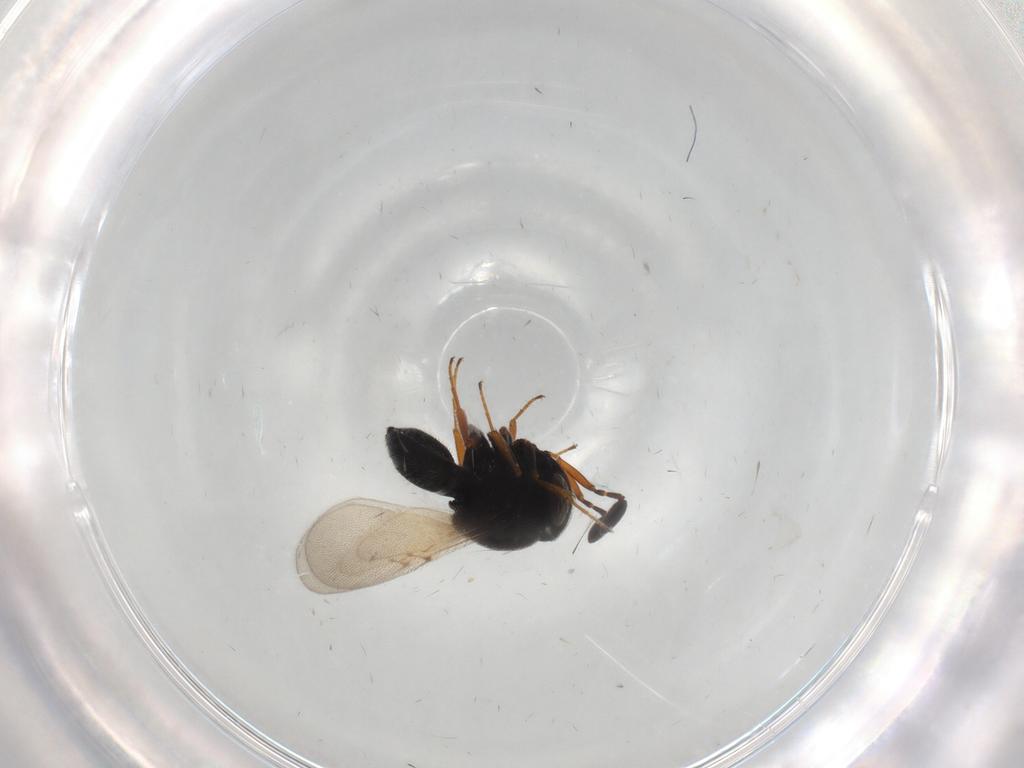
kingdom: Animalia
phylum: Arthropoda
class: Insecta
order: Hymenoptera
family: Scelionidae
